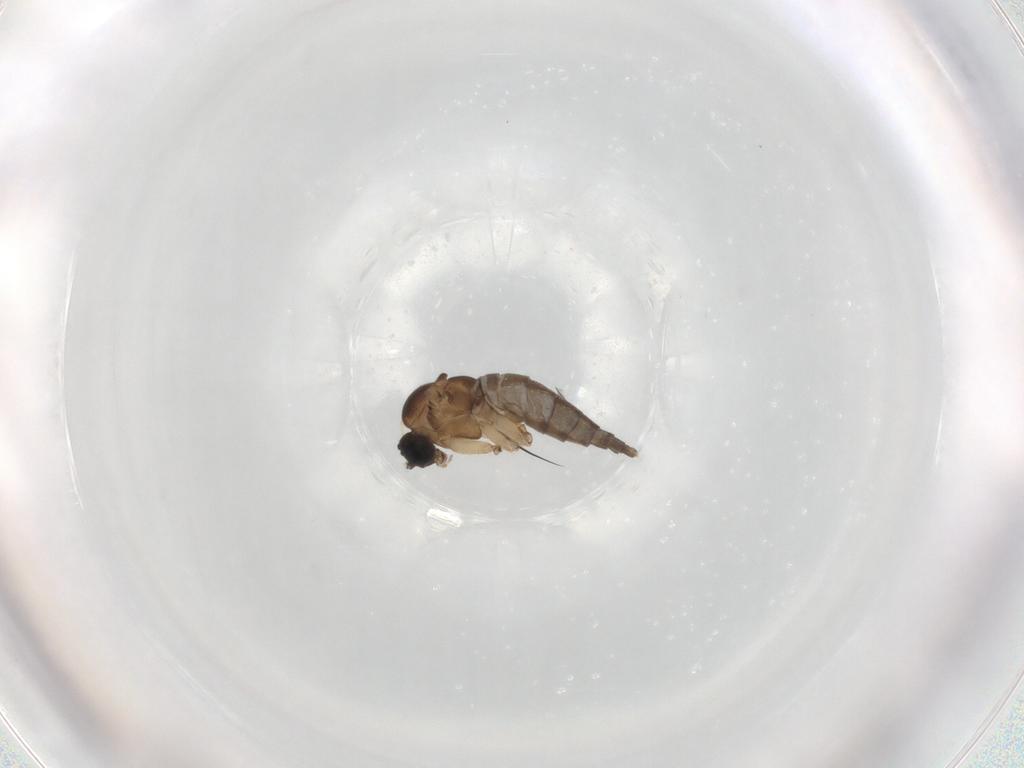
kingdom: Animalia
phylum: Arthropoda
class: Insecta
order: Diptera
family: Sciaridae
